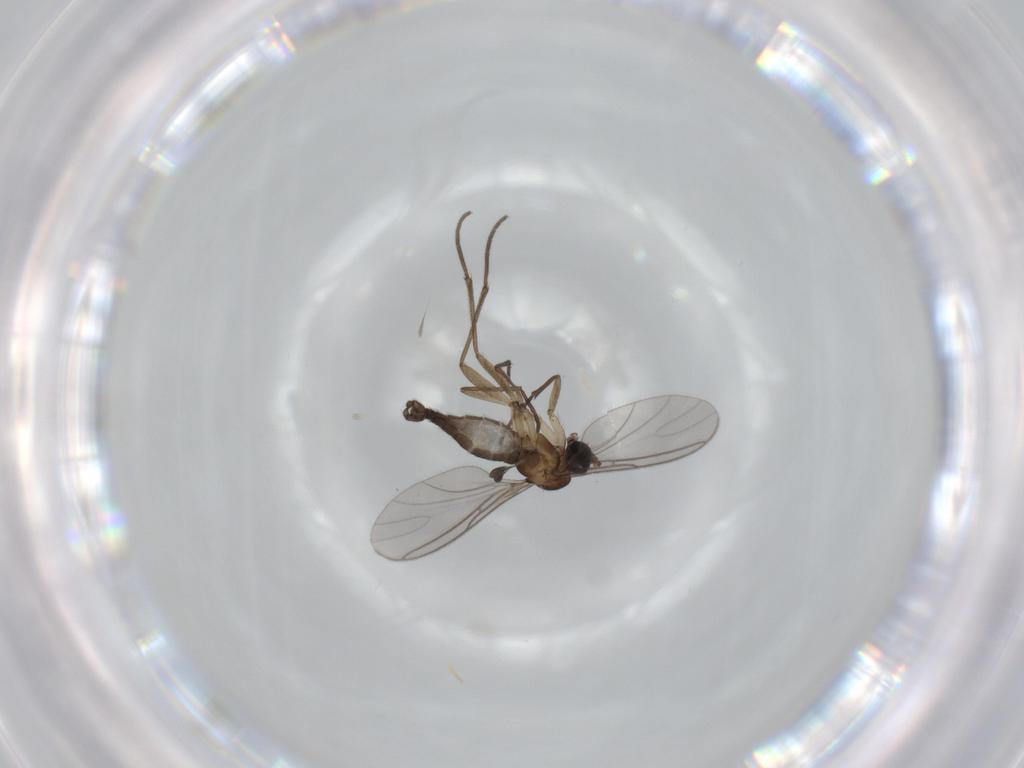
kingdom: Animalia
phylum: Arthropoda
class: Insecta
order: Diptera
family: Sciaridae
